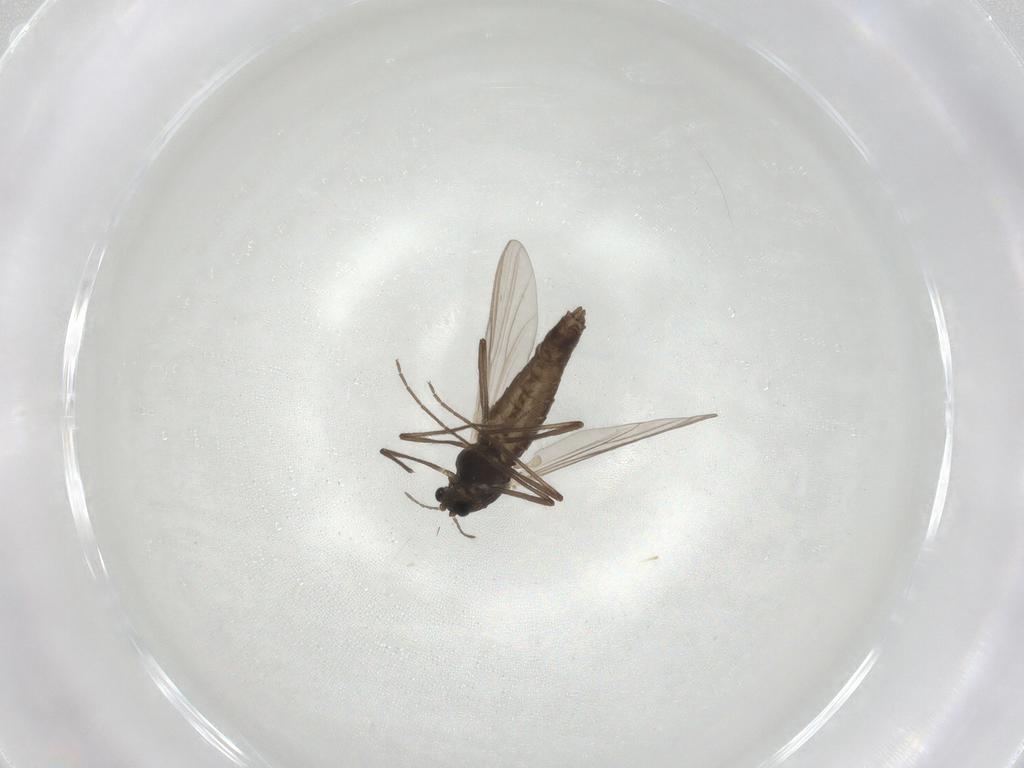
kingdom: Animalia
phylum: Arthropoda
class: Insecta
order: Diptera
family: Chironomidae
